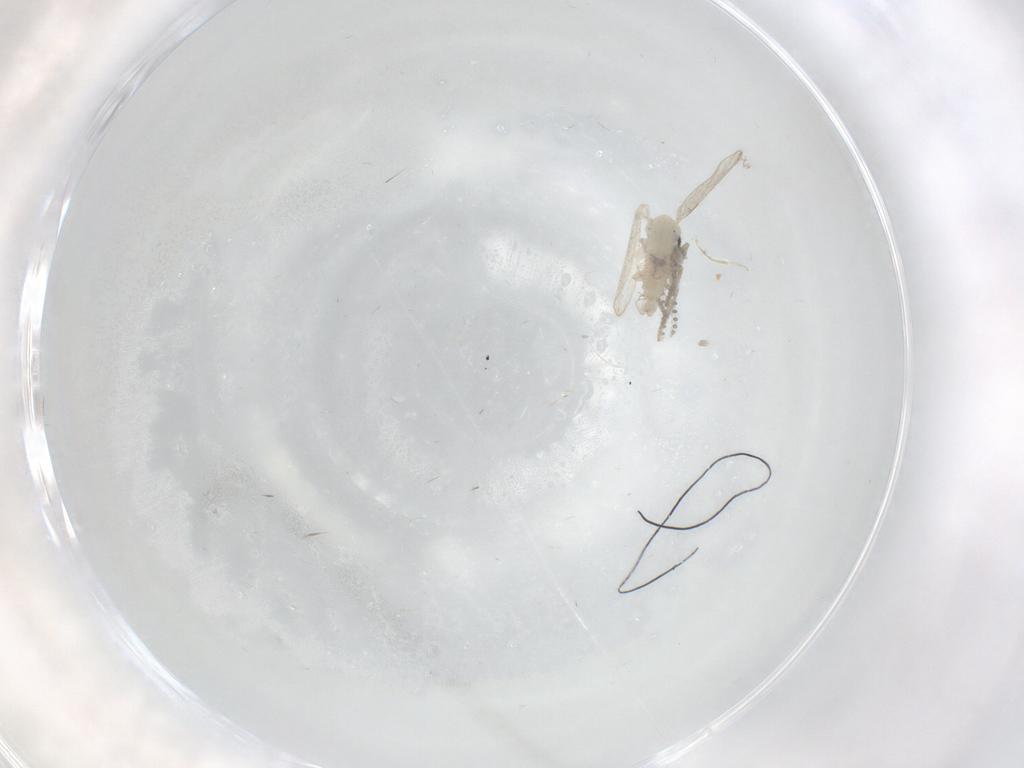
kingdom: Animalia
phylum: Arthropoda
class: Insecta
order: Diptera
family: Psychodidae
